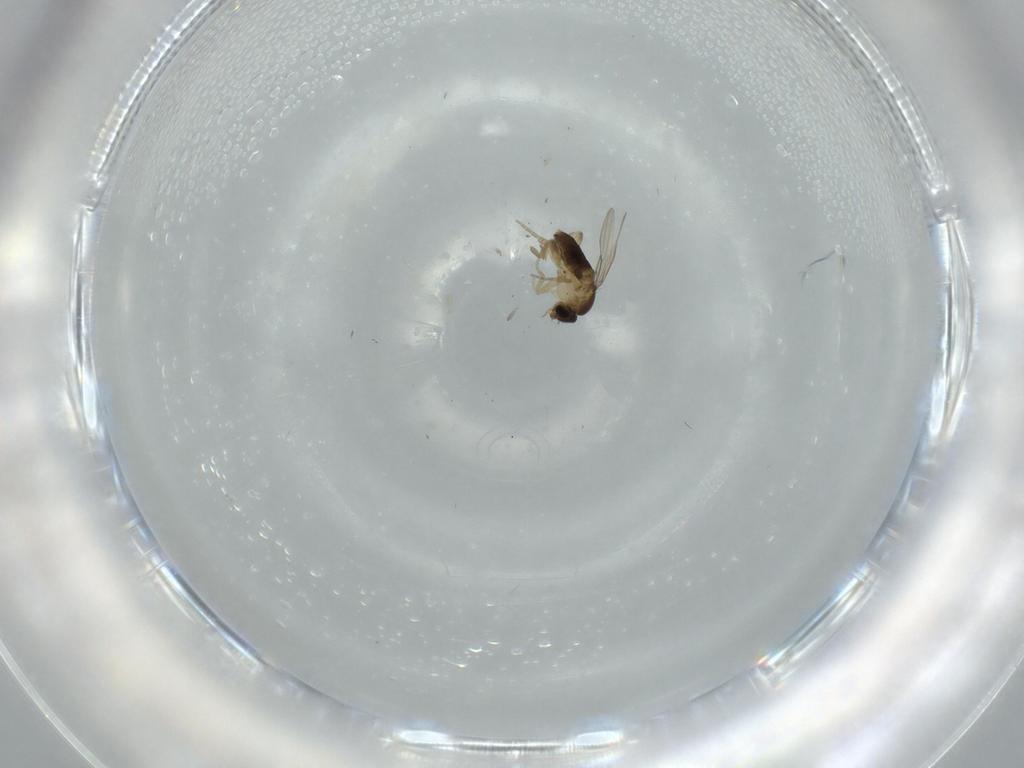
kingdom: Animalia
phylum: Arthropoda
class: Insecta
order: Diptera
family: Phoridae
